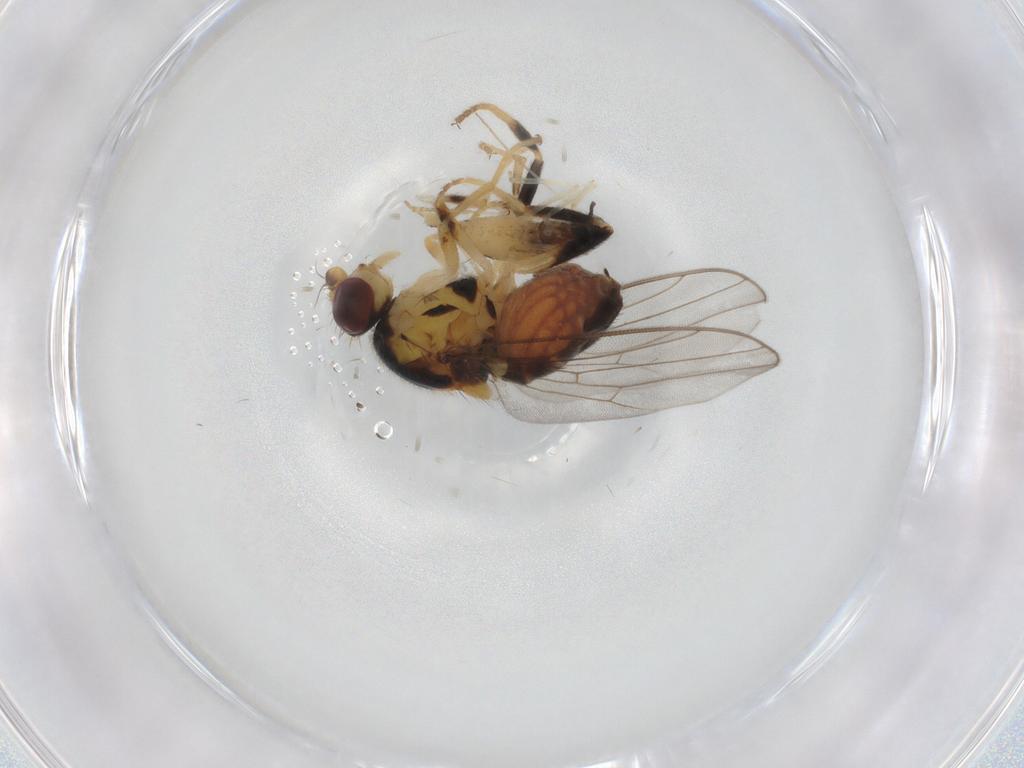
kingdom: Animalia
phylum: Arthropoda
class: Insecta
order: Diptera
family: Chloropidae
